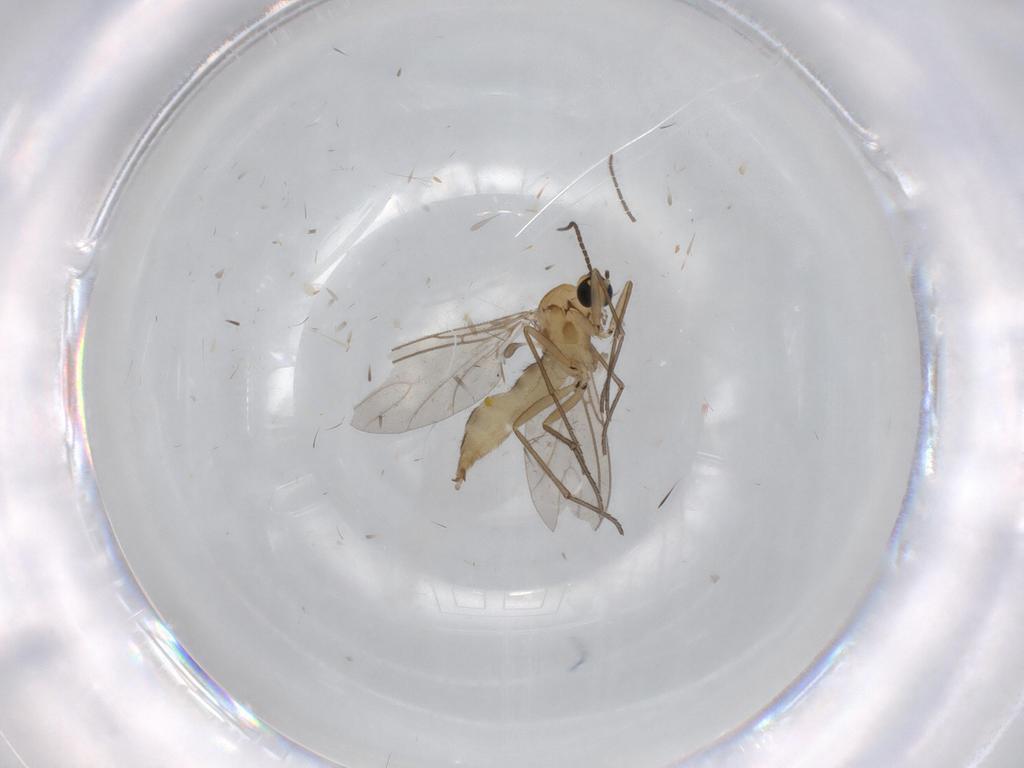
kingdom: Animalia
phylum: Arthropoda
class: Insecta
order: Diptera
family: Sciaridae
